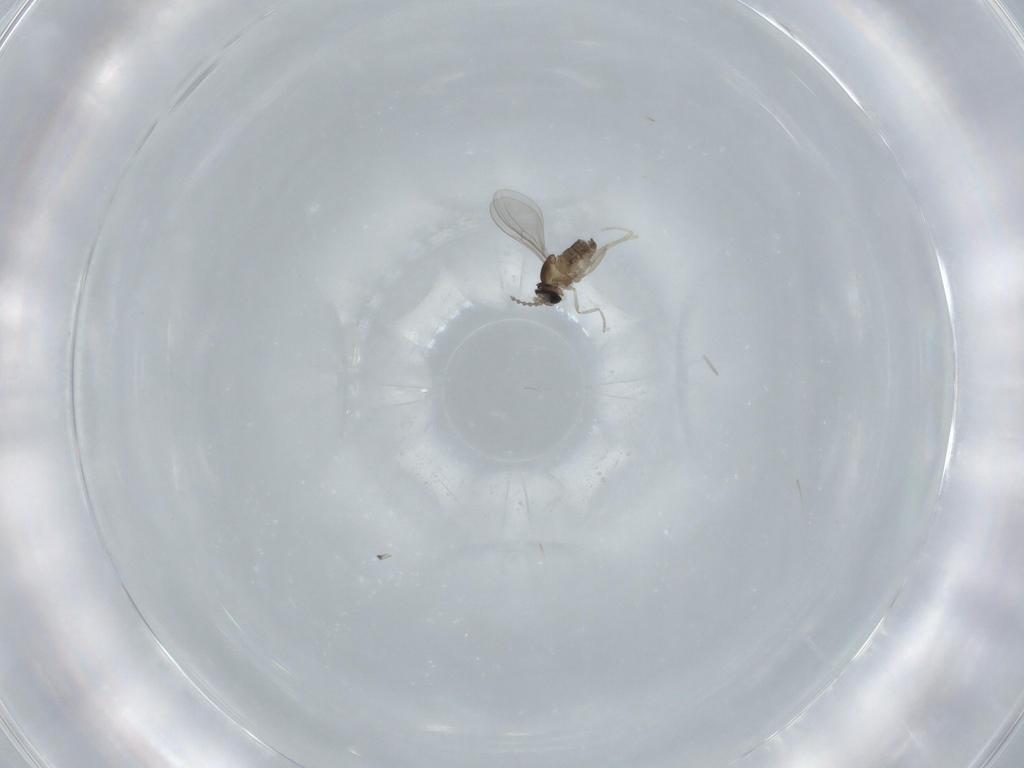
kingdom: Animalia
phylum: Arthropoda
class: Insecta
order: Diptera
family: Cecidomyiidae
